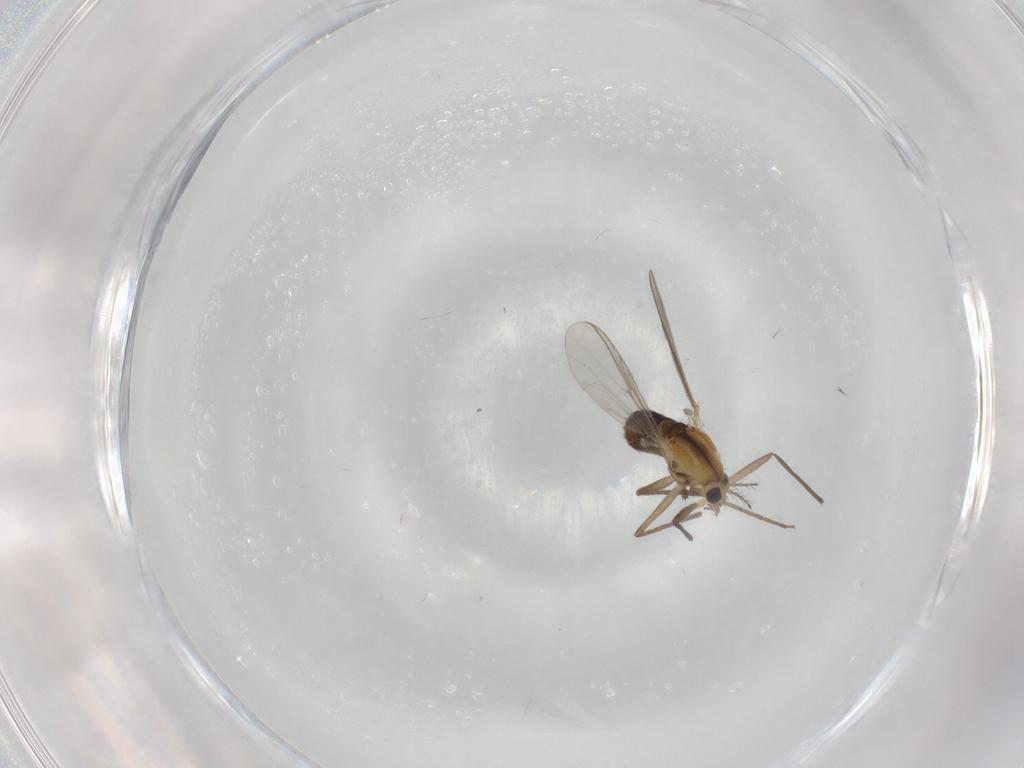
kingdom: Animalia
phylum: Arthropoda
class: Insecta
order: Diptera
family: Chironomidae
